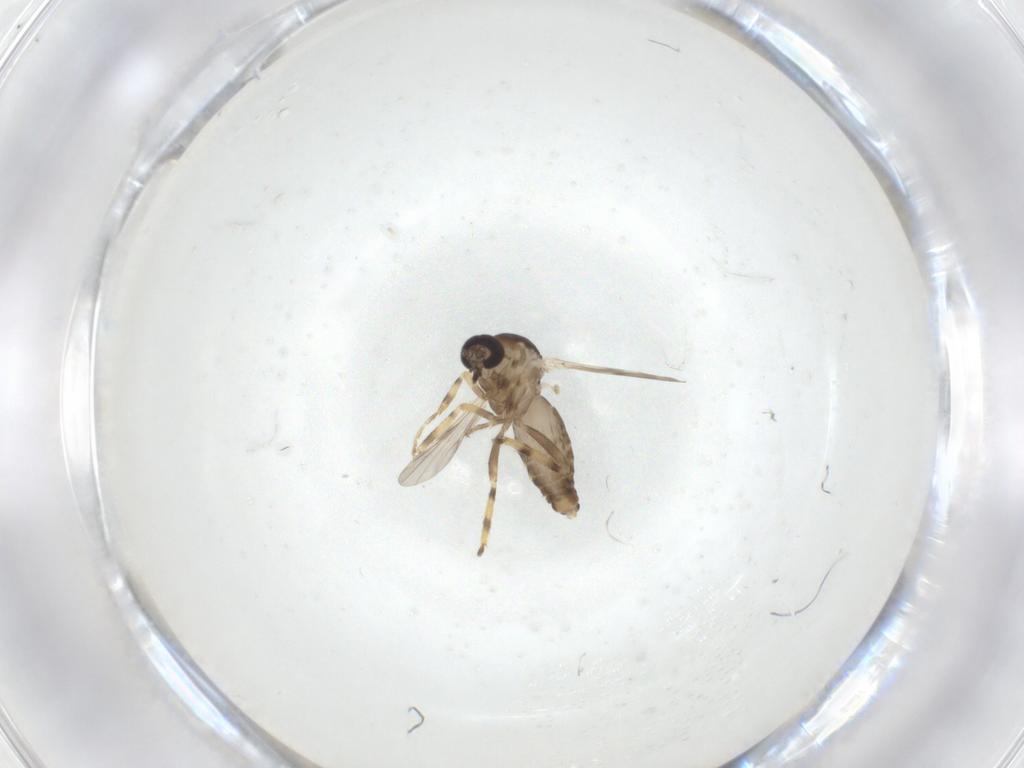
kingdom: Animalia
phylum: Arthropoda
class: Insecta
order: Diptera
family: Ceratopogonidae
